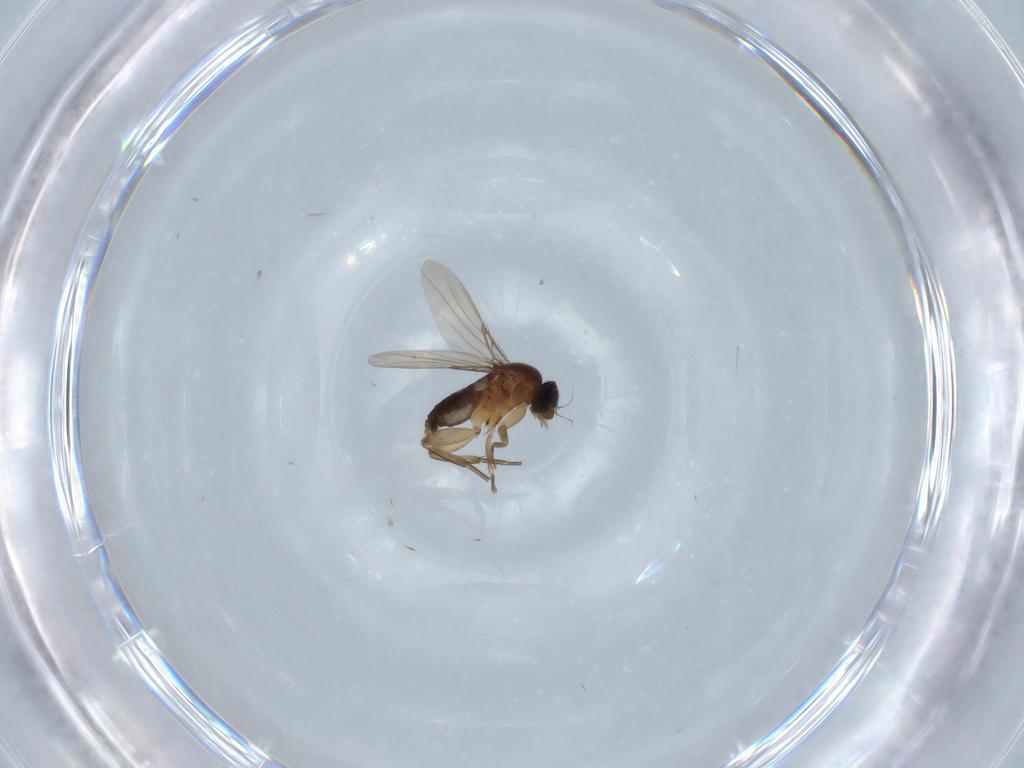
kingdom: Animalia
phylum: Arthropoda
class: Insecta
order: Diptera
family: Phoridae
